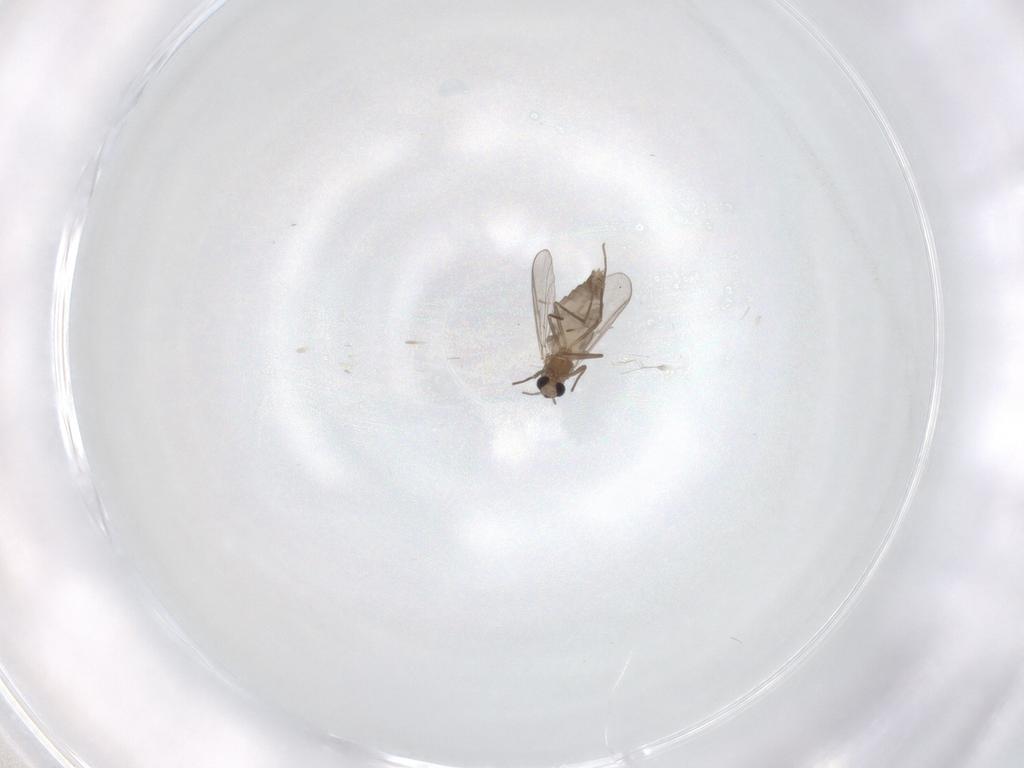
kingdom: Animalia
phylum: Arthropoda
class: Insecta
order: Diptera
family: Chironomidae
